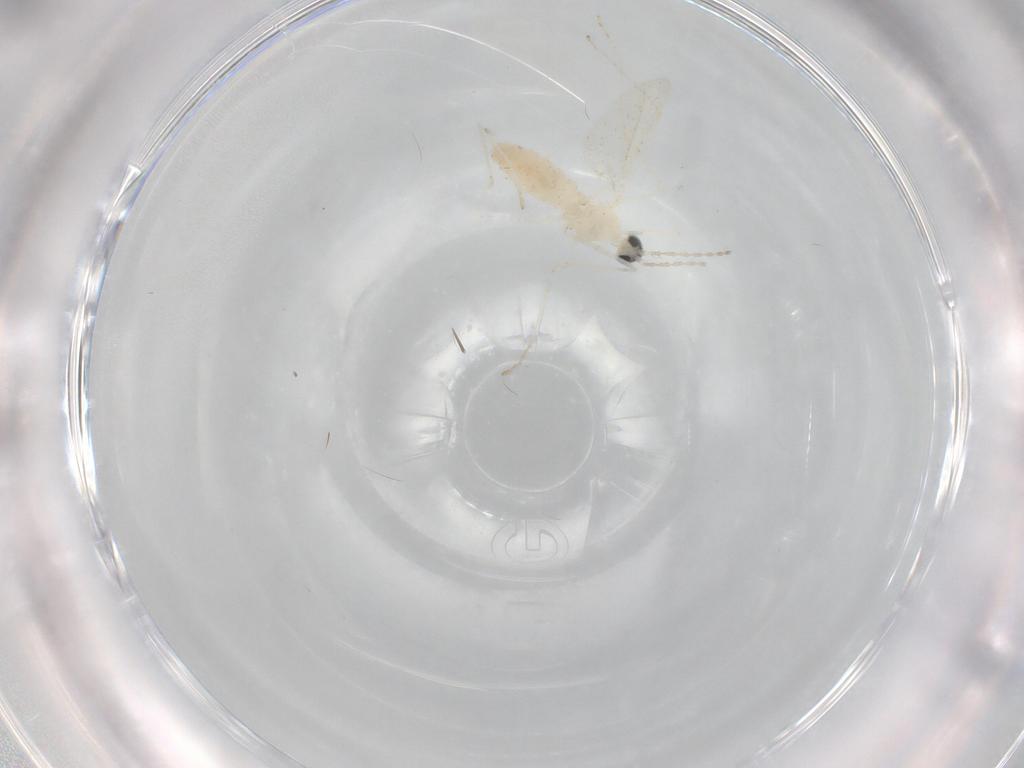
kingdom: Animalia
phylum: Arthropoda
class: Insecta
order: Diptera
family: Cecidomyiidae
